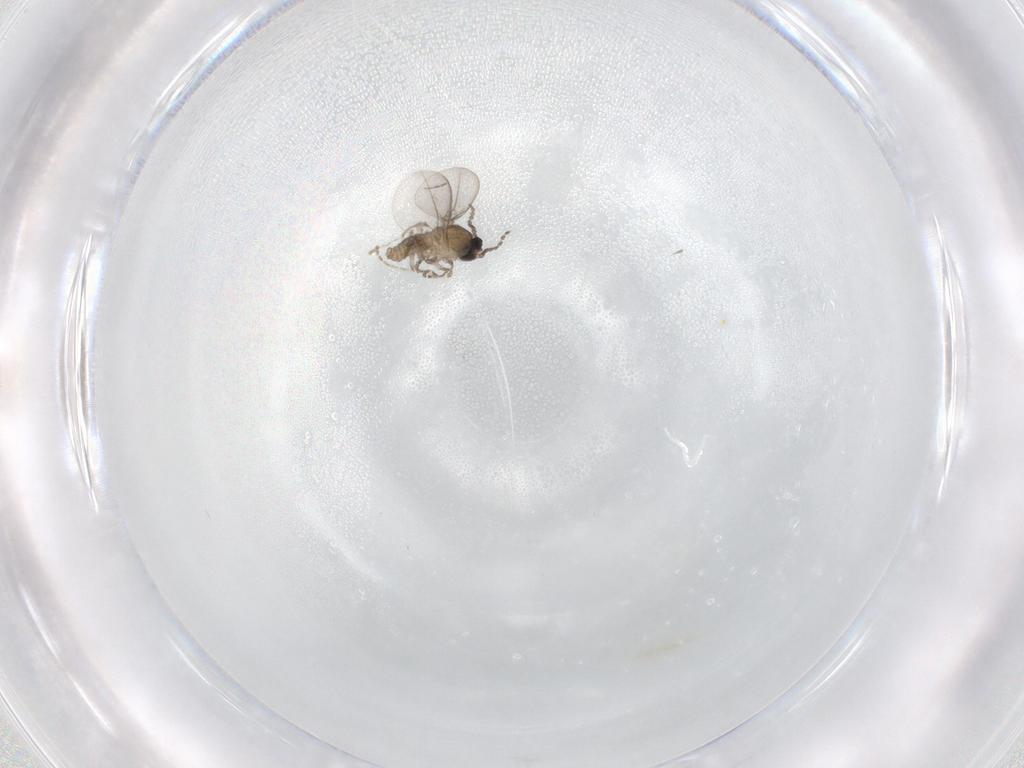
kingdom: Animalia
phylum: Arthropoda
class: Insecta
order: Diptera
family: Cecidomyiidae
